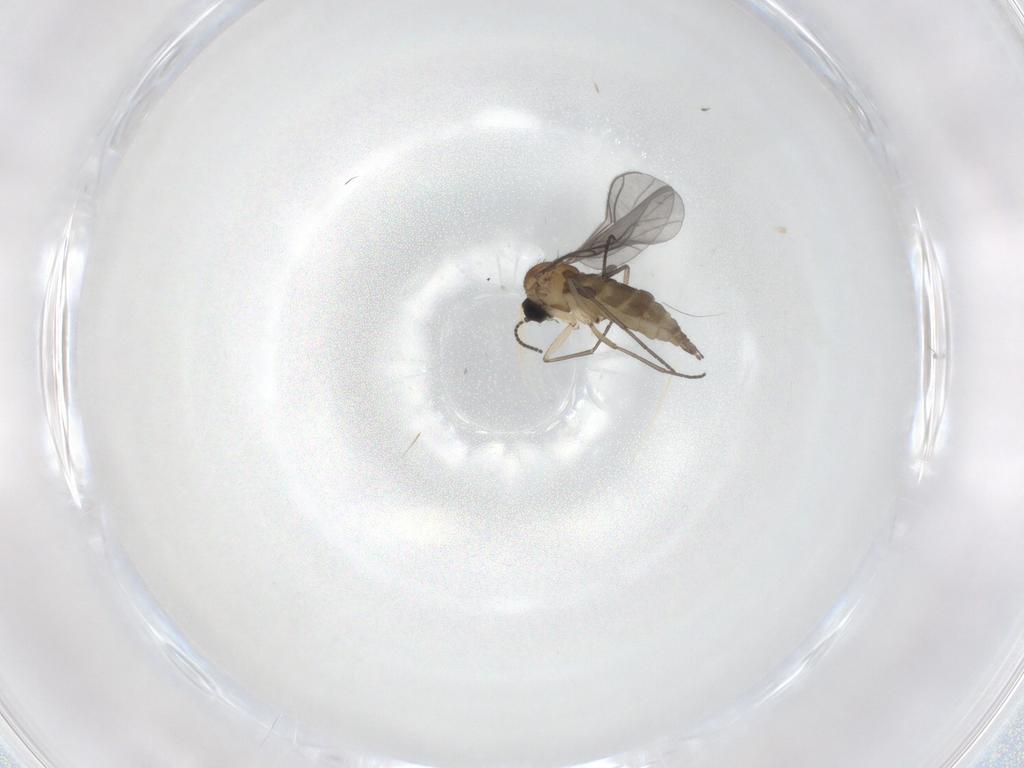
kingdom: Animalia
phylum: Arthropoda
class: Insecta
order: Diptera
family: Sciaridae
